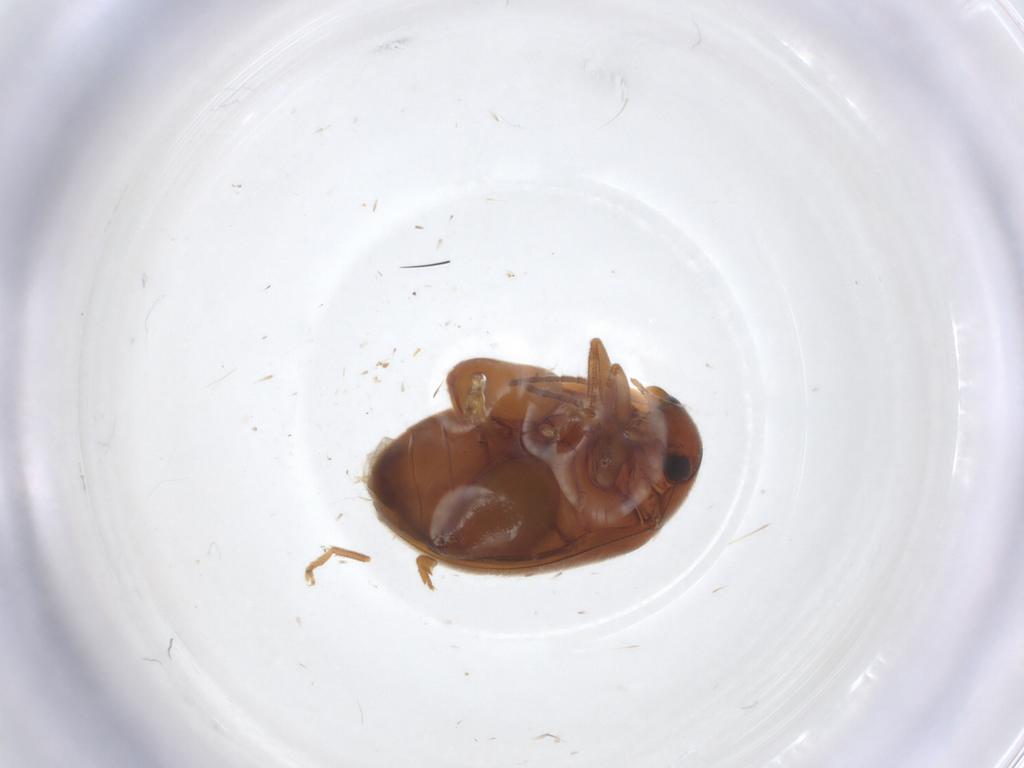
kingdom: Animalia
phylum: Arthropoda
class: Insecta
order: Coleoptera
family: Scirtidae
